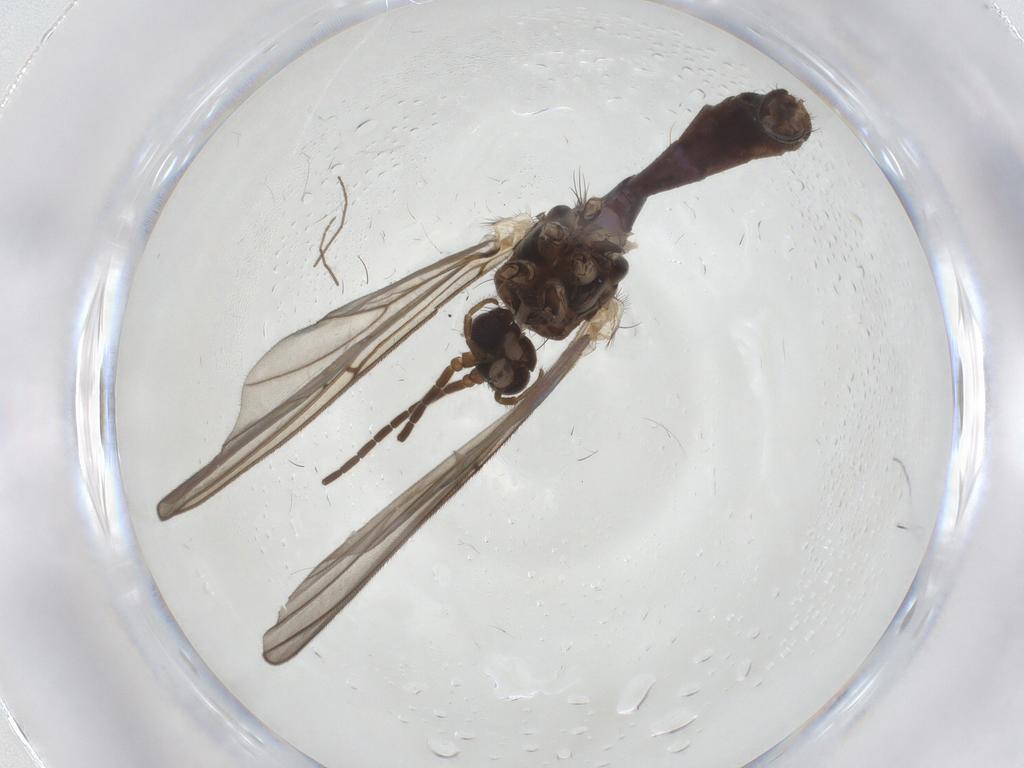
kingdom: Animalia
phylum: Arthropoda
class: Insecta
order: Diptera
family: Mycetophilidae
